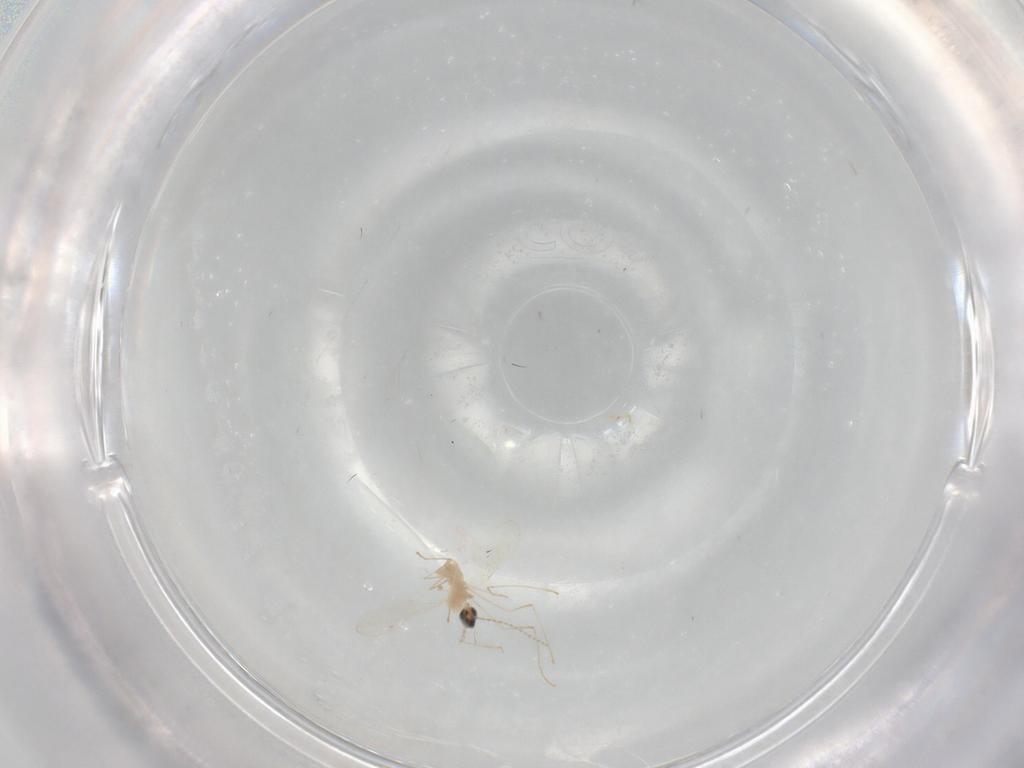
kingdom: Animalia
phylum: Arthropoda
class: Insecta
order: Diptera
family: Cecidomyiidae
